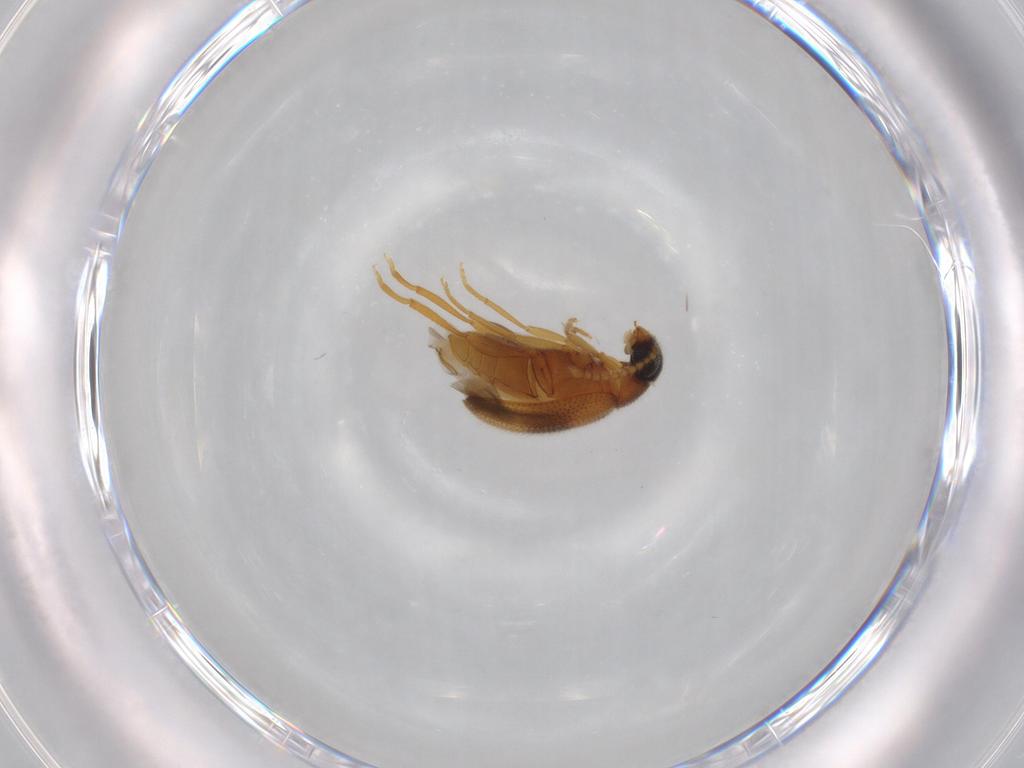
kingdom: Animalia
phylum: Arthropoda
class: Insecta
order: Coleoptera
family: Aderidae
